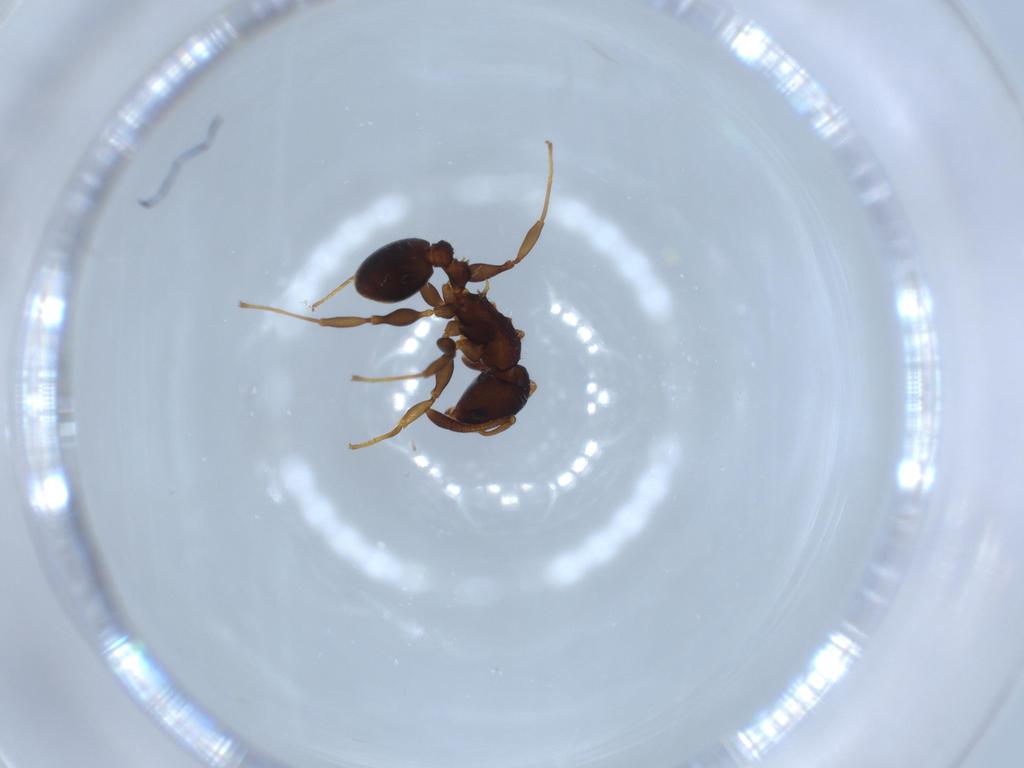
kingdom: Animalia
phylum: Arthropoda
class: Insecta
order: Hymenoptera
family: Formicidae
